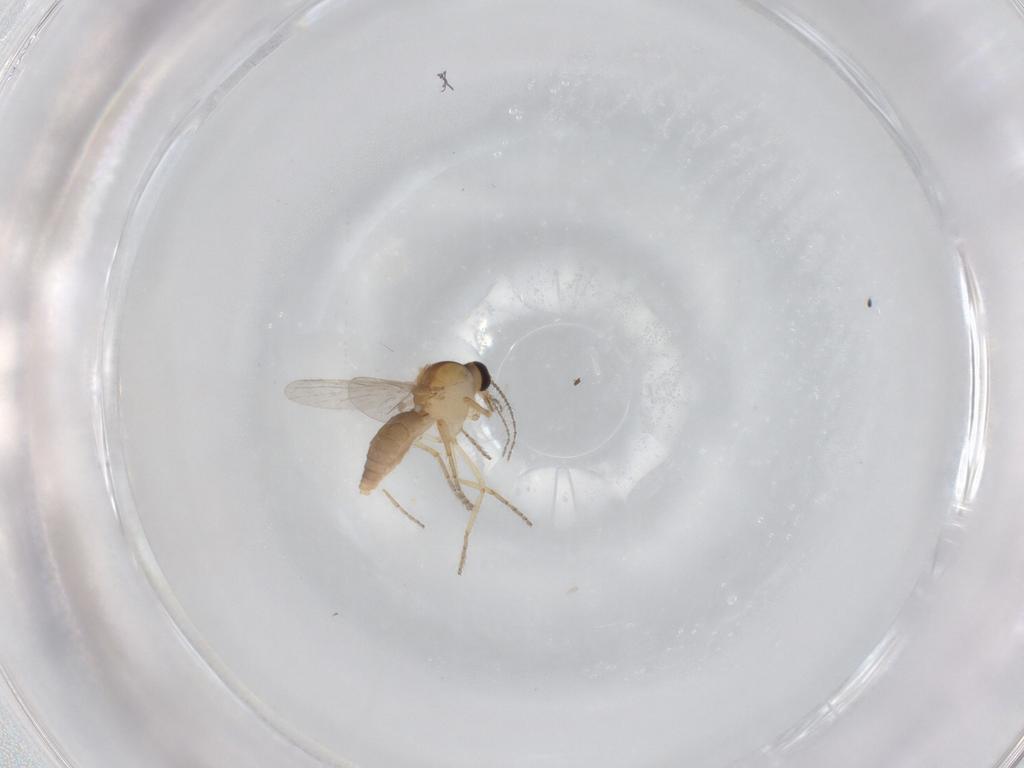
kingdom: Animalia
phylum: Arthropoda
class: Insecta
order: Diptera
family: Ceratopogonidae
